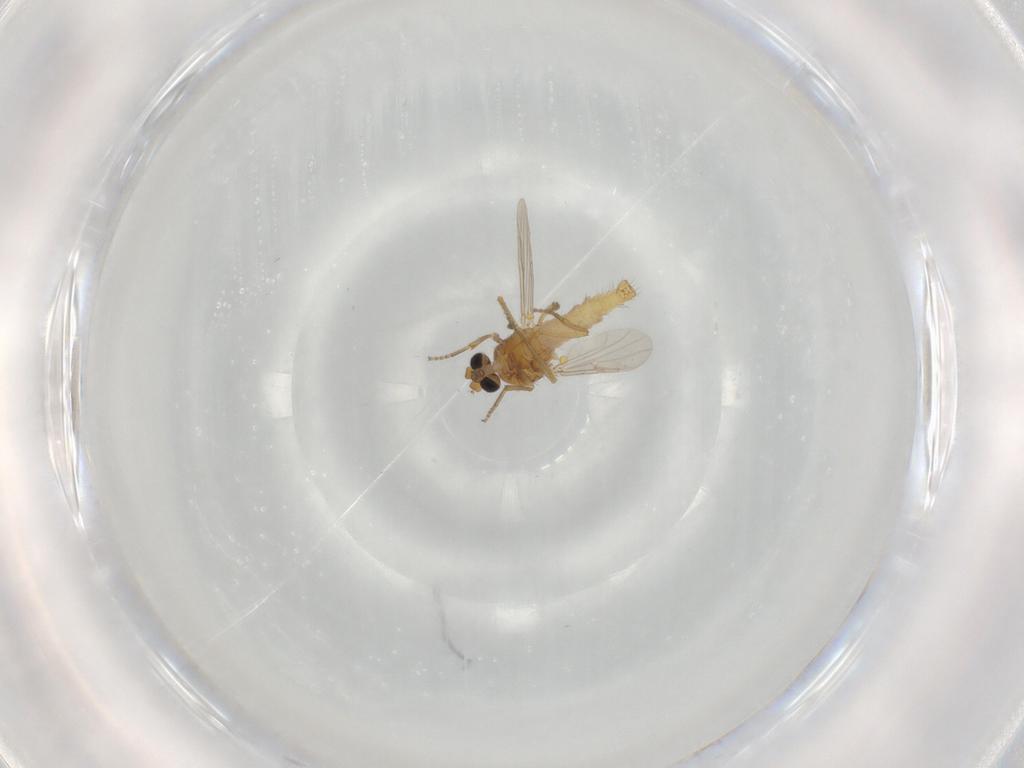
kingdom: Animalia
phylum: Arthropoda
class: Insecta
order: Diptera
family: Ceratopogonidae
